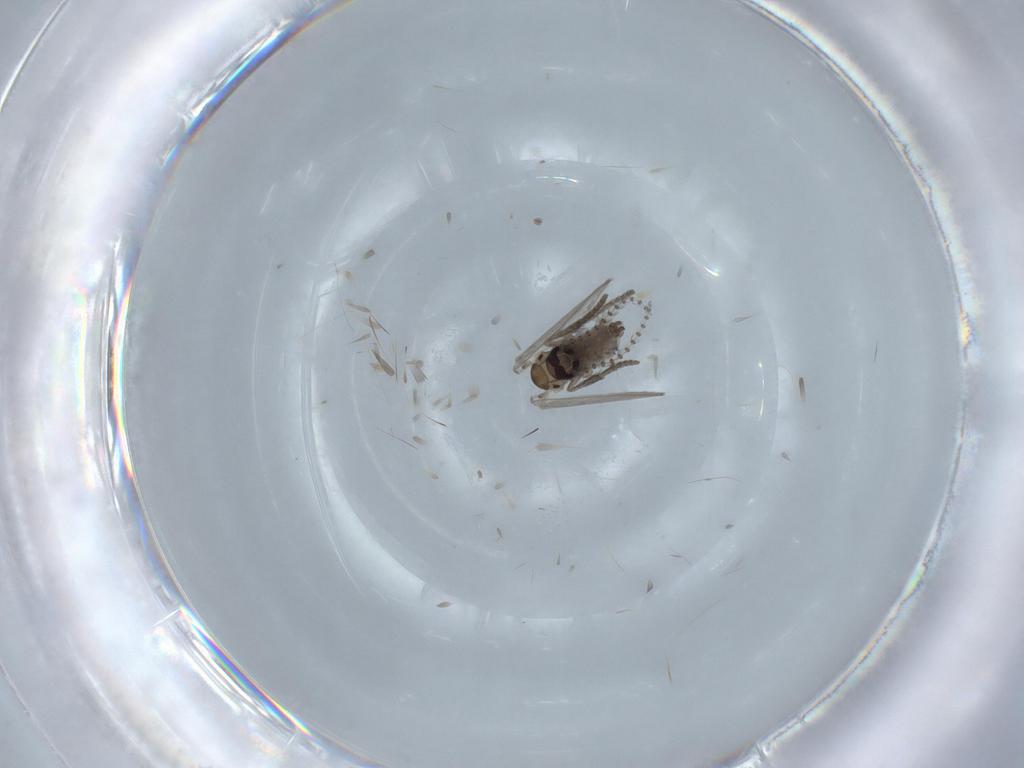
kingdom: Animalia
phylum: Arthropoda
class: Insecta
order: Diptera
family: Psychodidae
